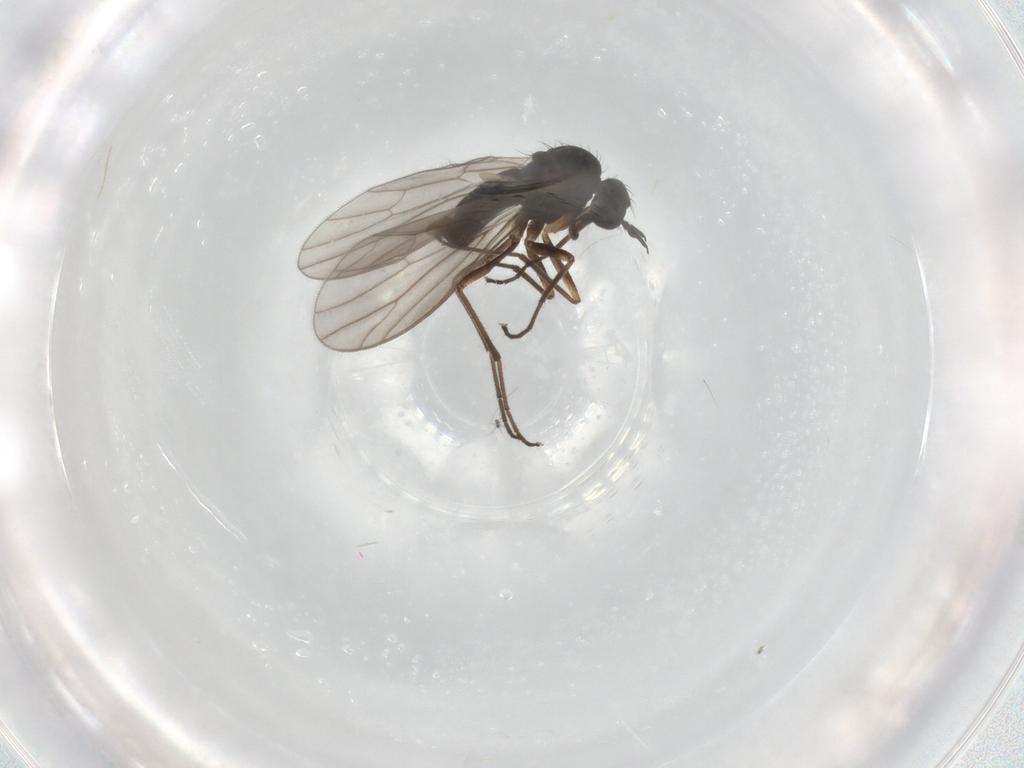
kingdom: Animalia
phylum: Arthropoda
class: Insecta
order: Diptera
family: Empididae
